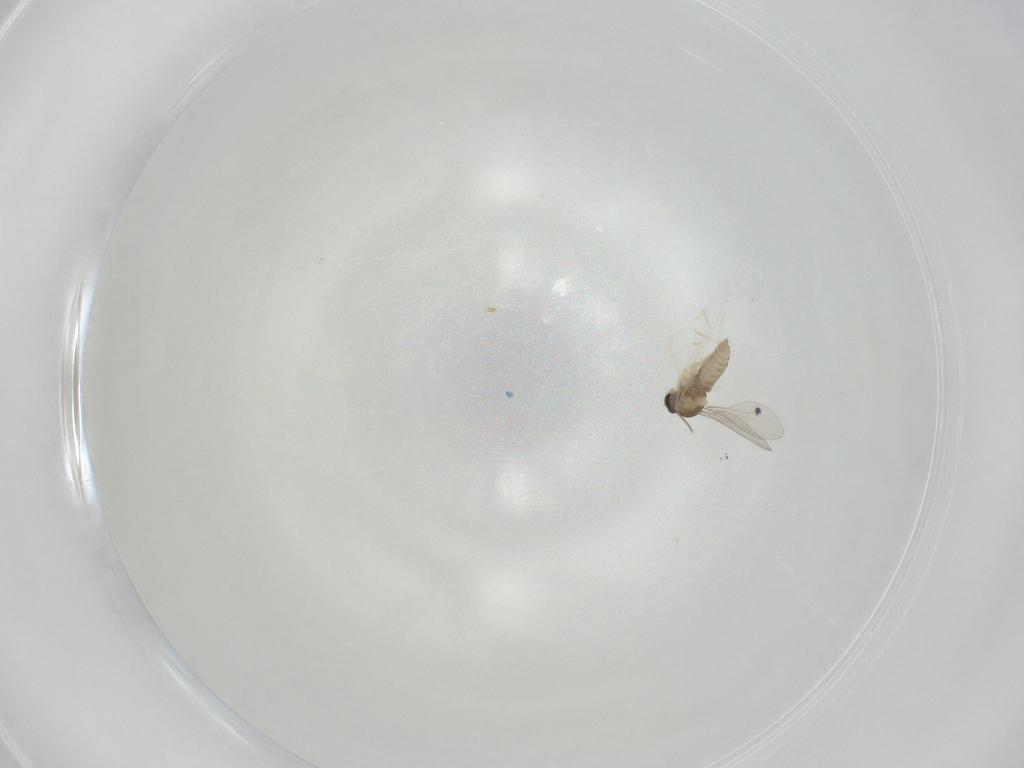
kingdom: Animalia
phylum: Arthropoda
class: Insecta
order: Diptera
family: Cecidomyiidae
